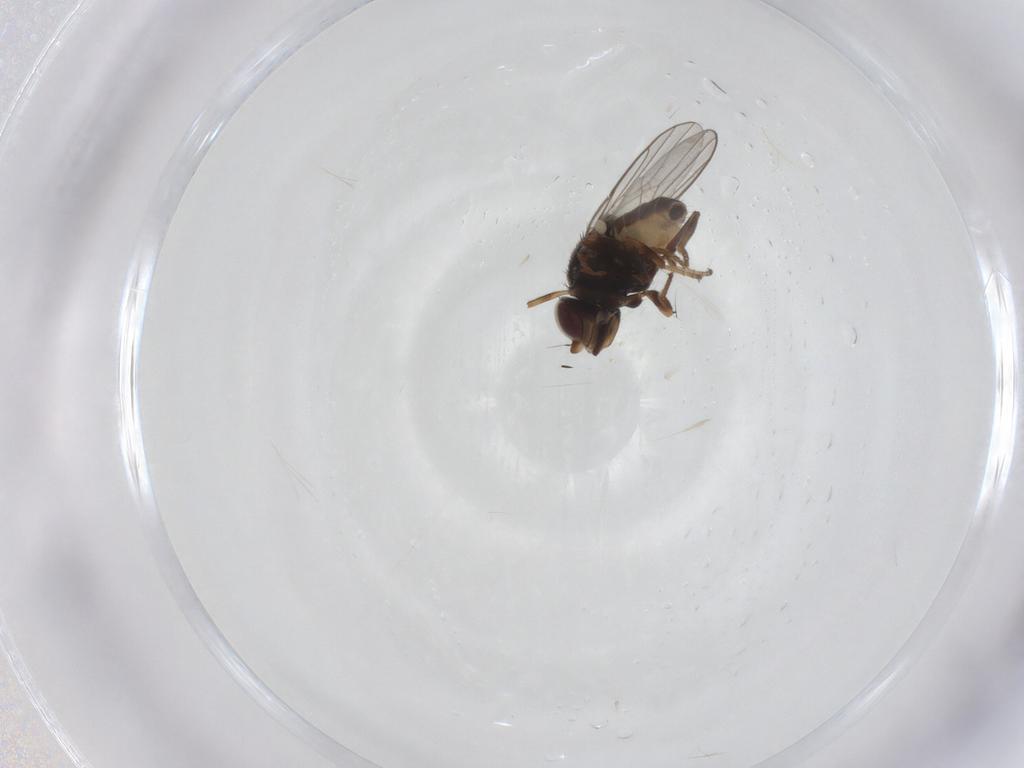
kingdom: Animalia
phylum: Arthropoda
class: Insecta
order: Diptera
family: Chloropidae
